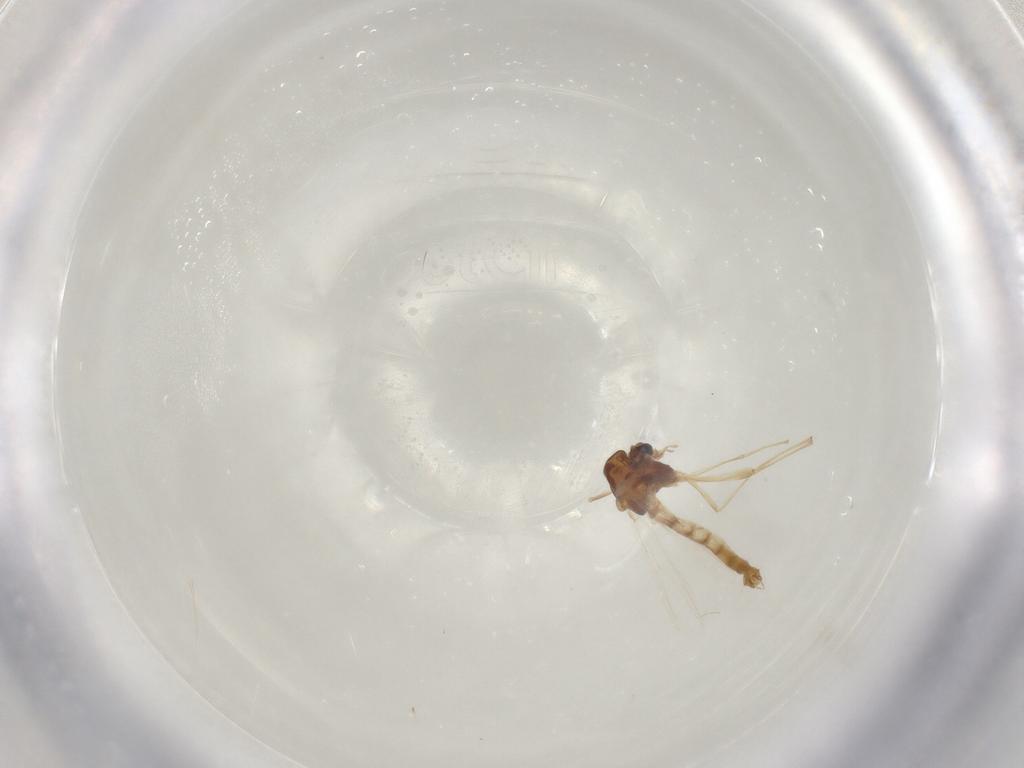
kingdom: Animalia
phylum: Arthropoda
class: Insecta
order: Diptera
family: Chironomidae
